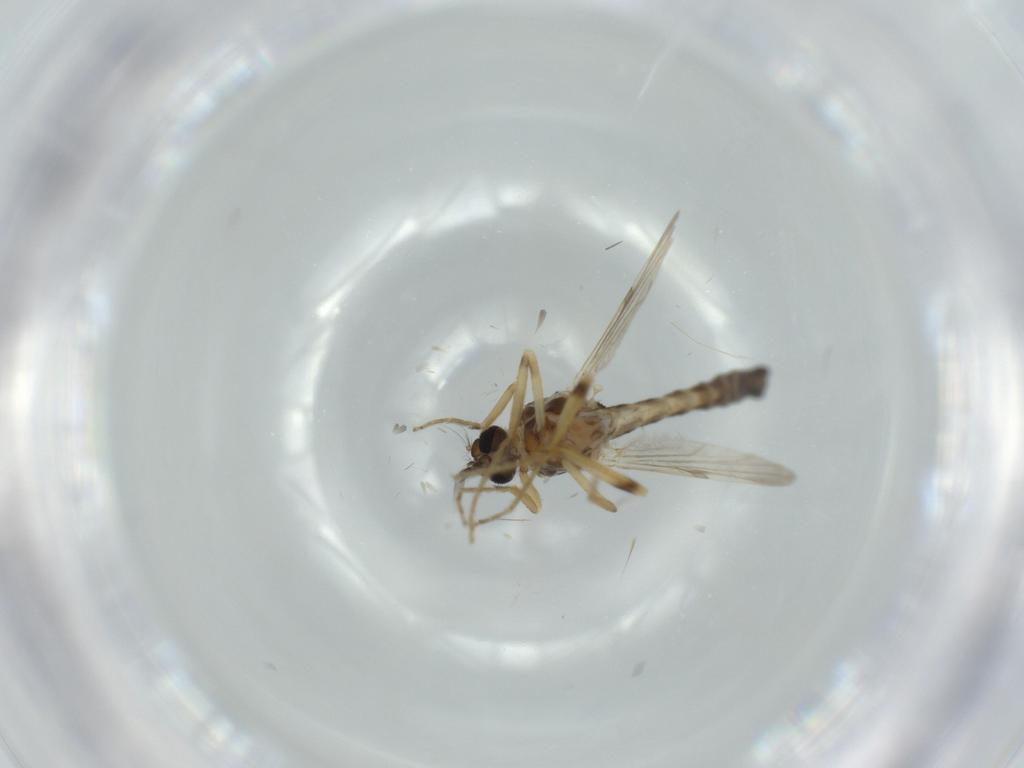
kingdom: Animalia
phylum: Arthropoda
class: Insecta
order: Diptera
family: Ceratopogonidae
